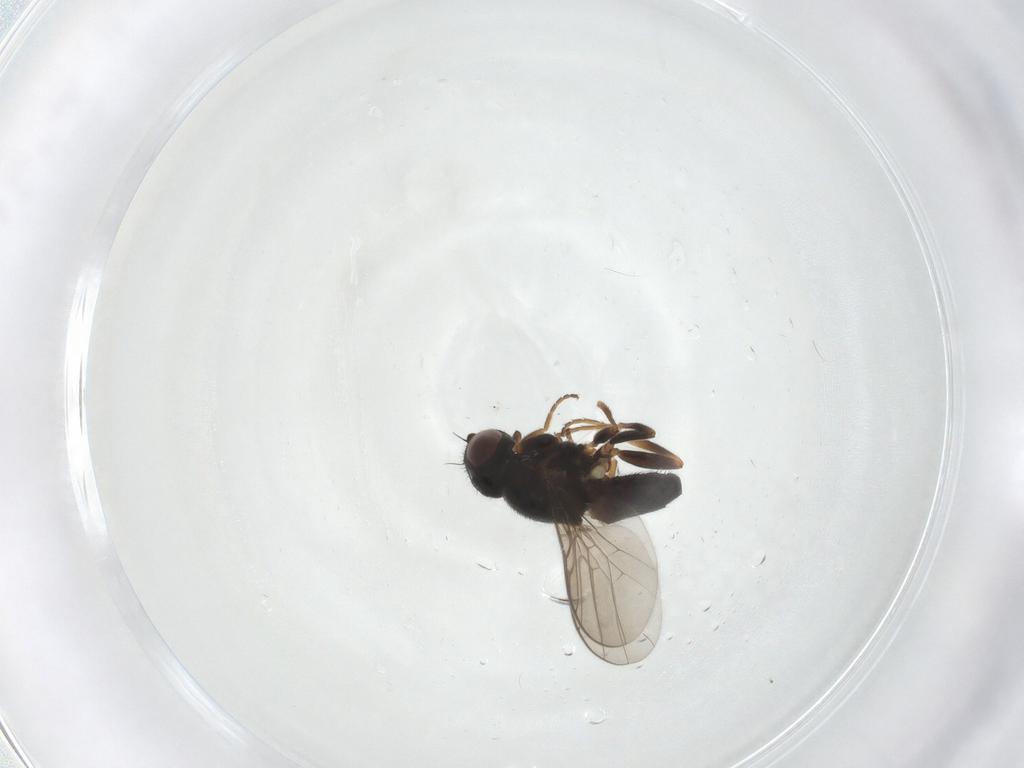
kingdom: Animalia
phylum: Arthropoda
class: Insecta
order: Diptera
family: Chloropidae
